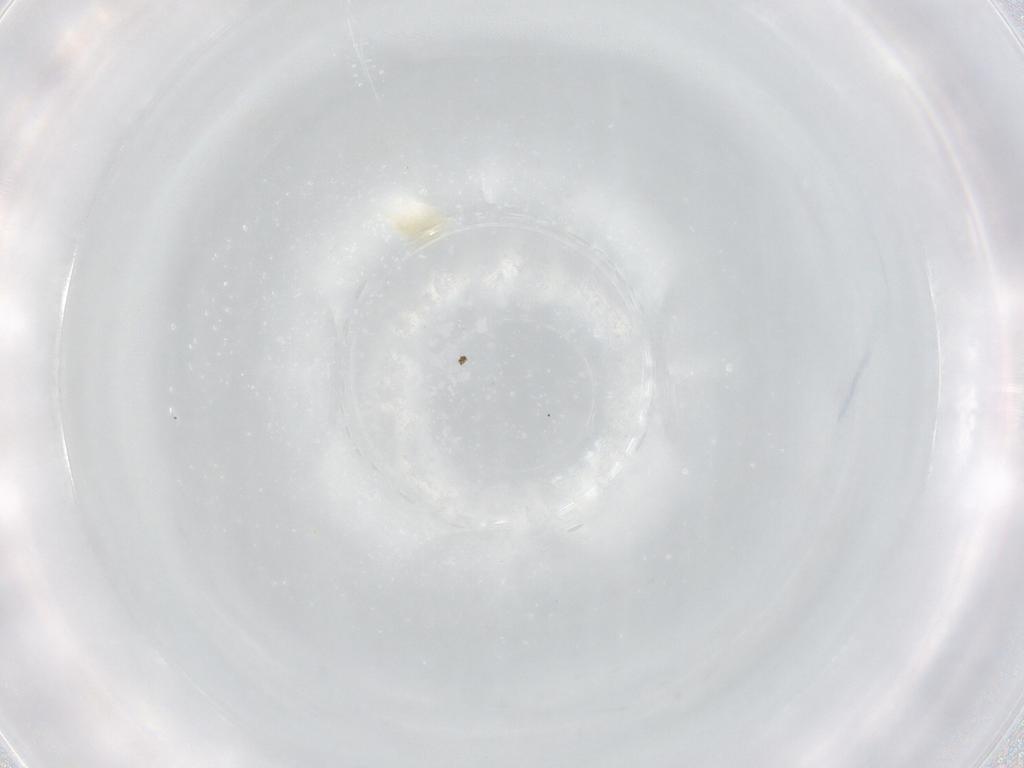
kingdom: Animalia
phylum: Arthropoda
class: Arachnida
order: Trombidiformes
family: Eupodidae
